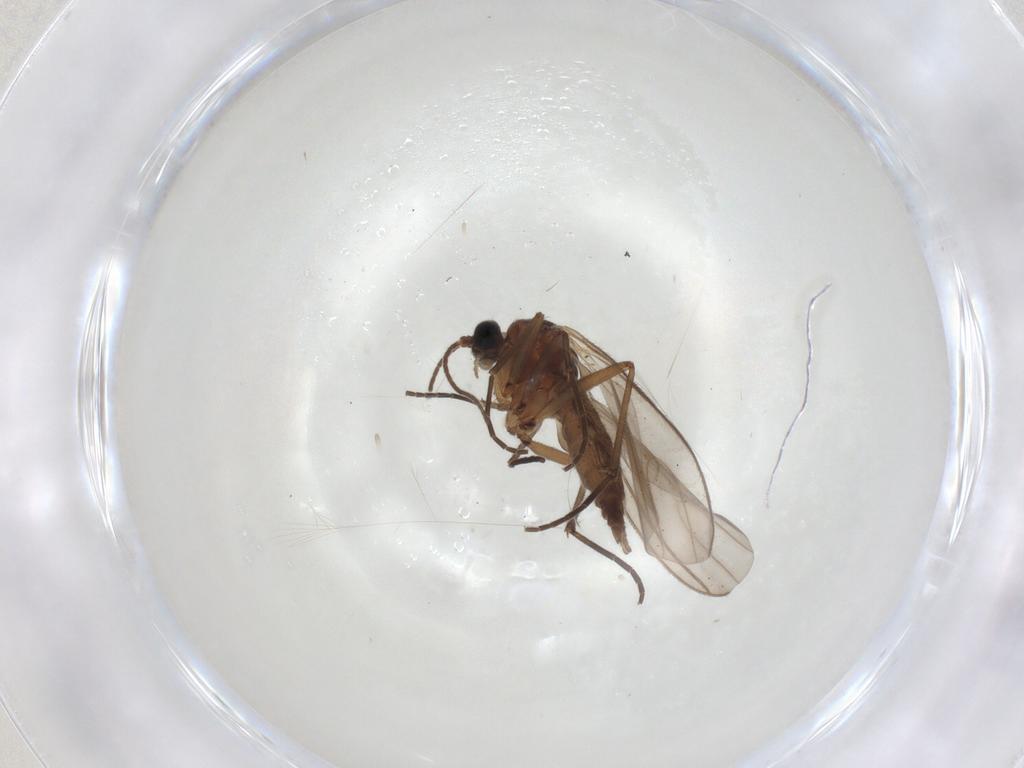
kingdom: Animalia
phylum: Arthropoda
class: Insecta
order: Diptera
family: Sciaridae
